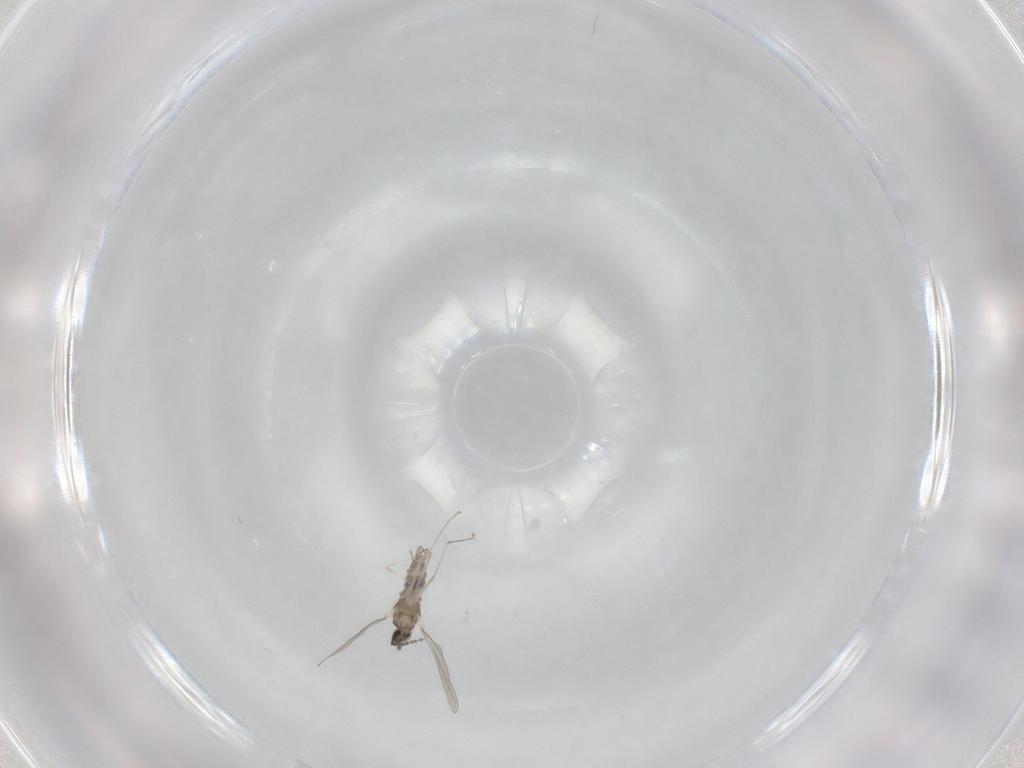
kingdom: Animalia
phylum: Arthropoda
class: Insecta
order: Diptera
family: Cecidomyiidae
